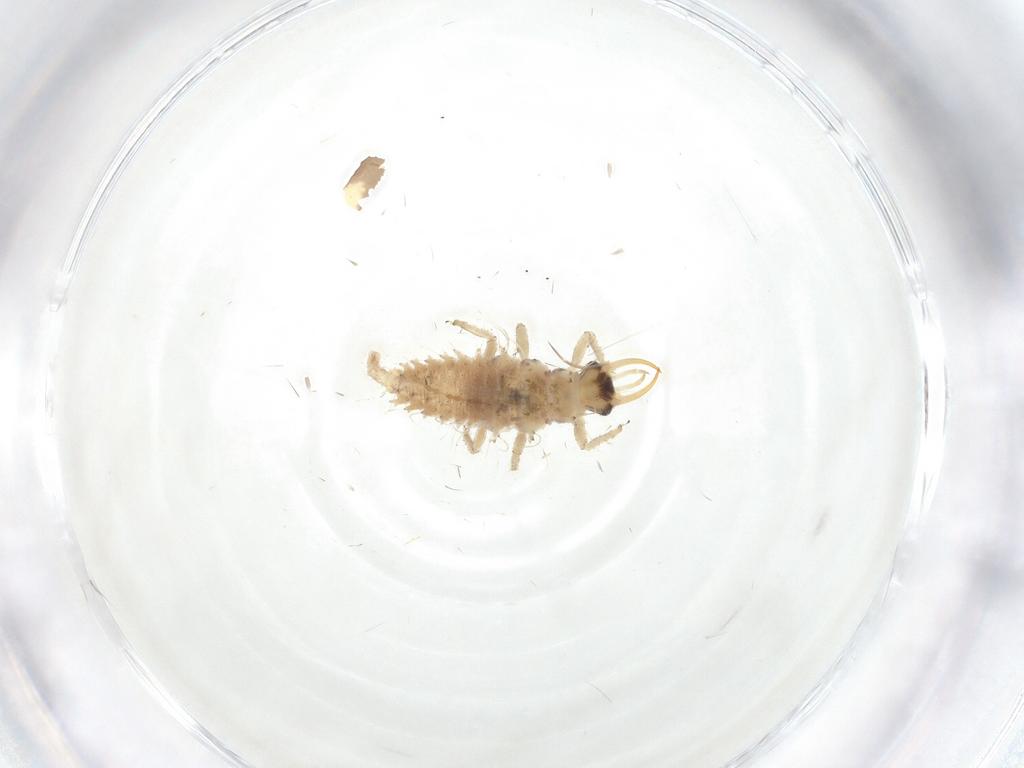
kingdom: Animalia
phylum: Arthropoda
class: Insecta
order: Neuroptera
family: Chrysopidae
